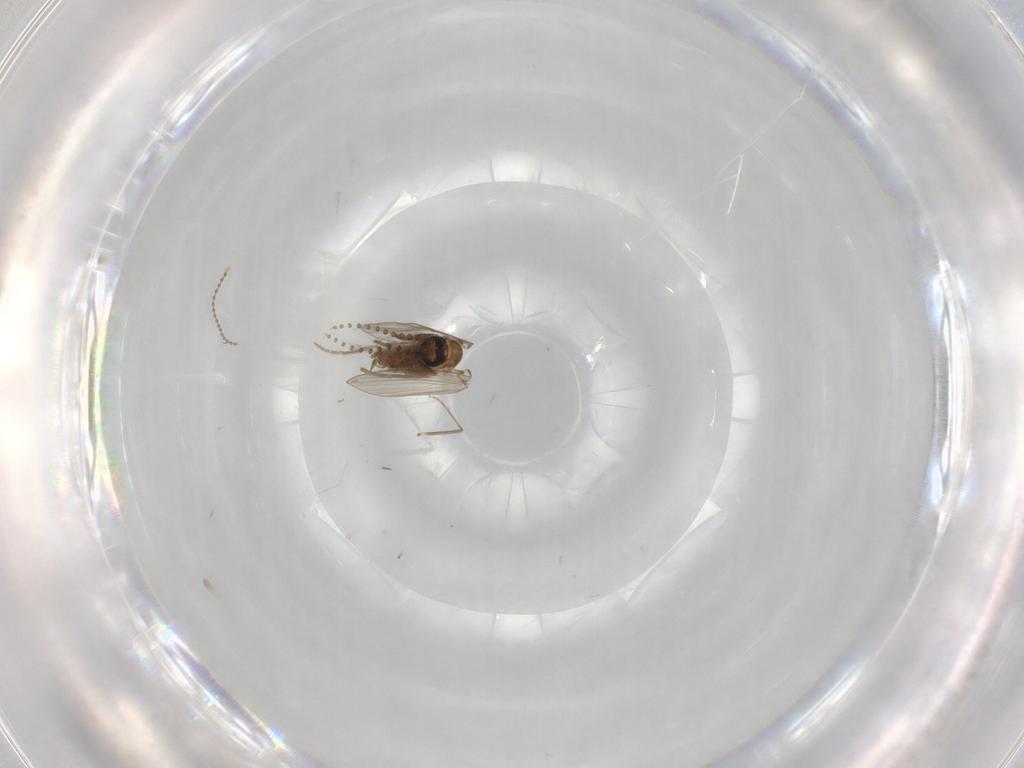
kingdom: Animalia
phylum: Arthropoda
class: Insecta
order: Diptera
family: Psychodidae
